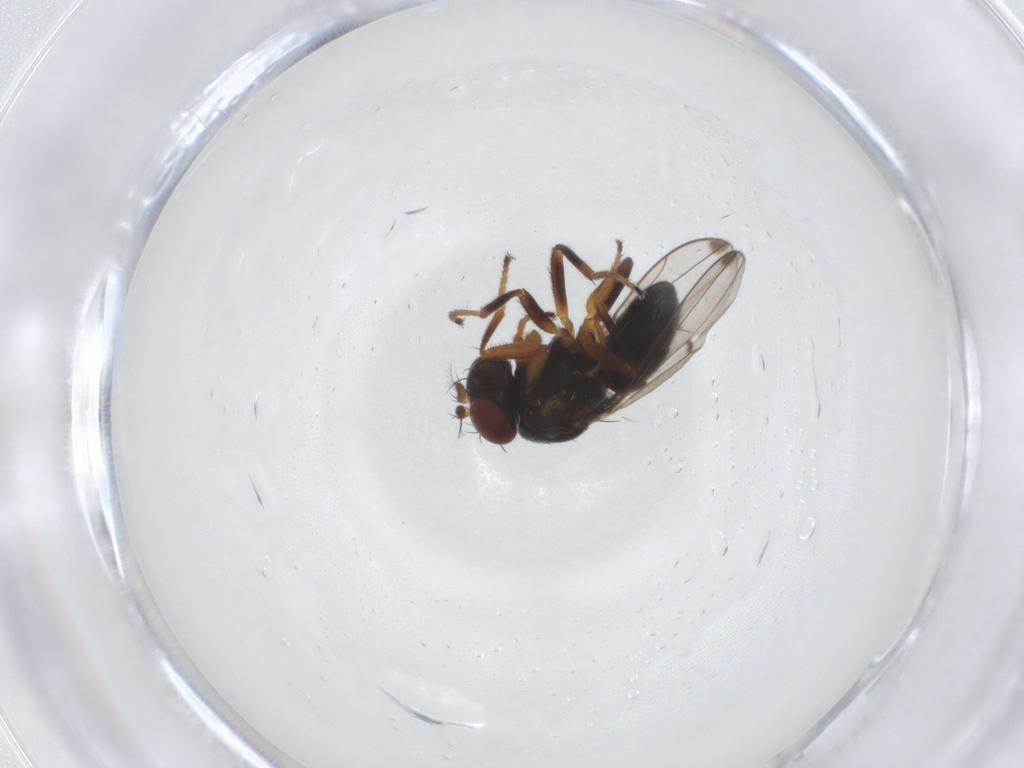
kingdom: Animalia
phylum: Arthropoda
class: Insecta
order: Diptera
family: Ephydridae
